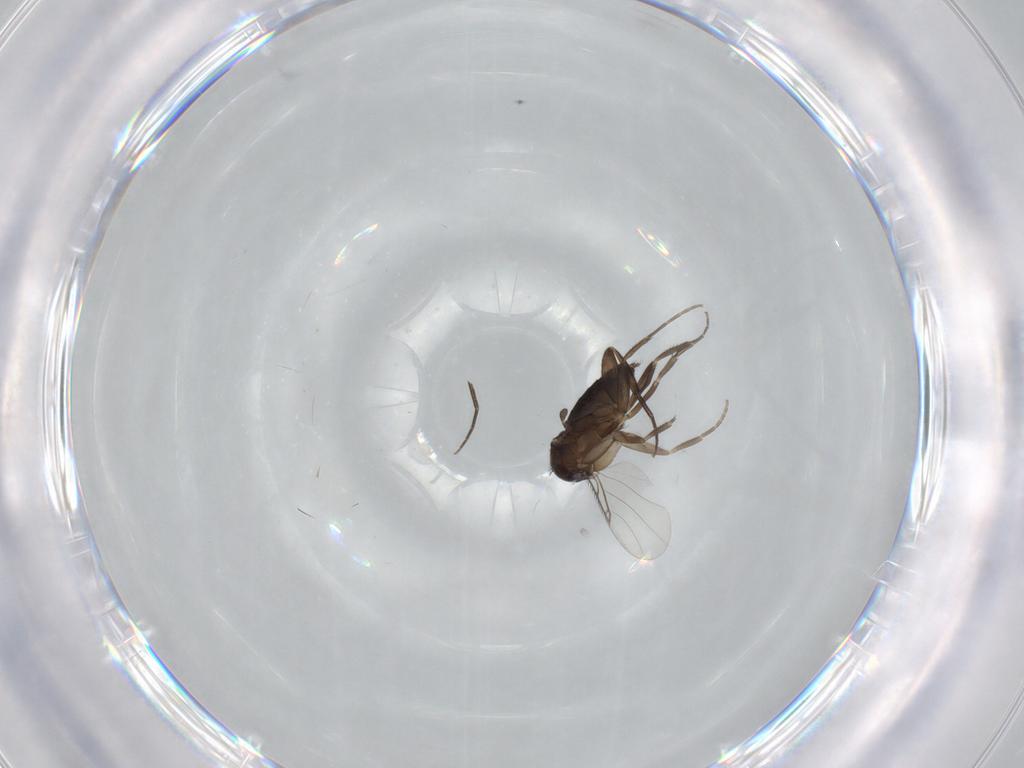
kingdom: Animalia
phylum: Arthropoda
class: Insecta
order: Diptera
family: Phoridae
